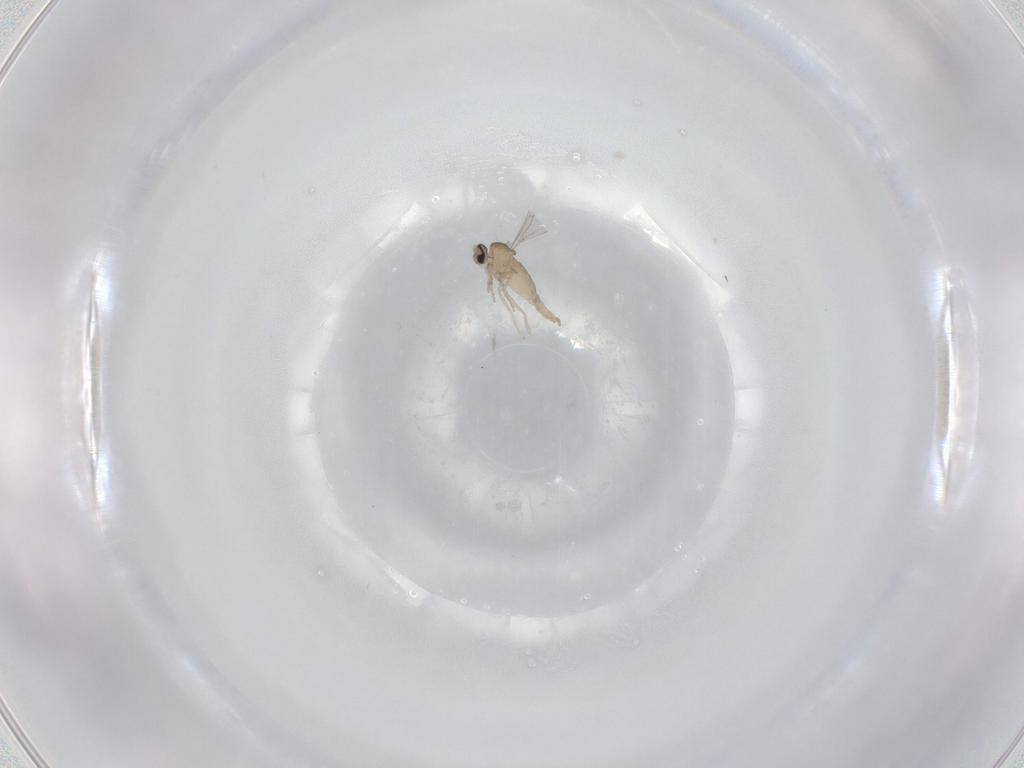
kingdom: Animalia
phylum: Arthropoda
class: Insecta
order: Diptera
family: Cecidomyiidae
